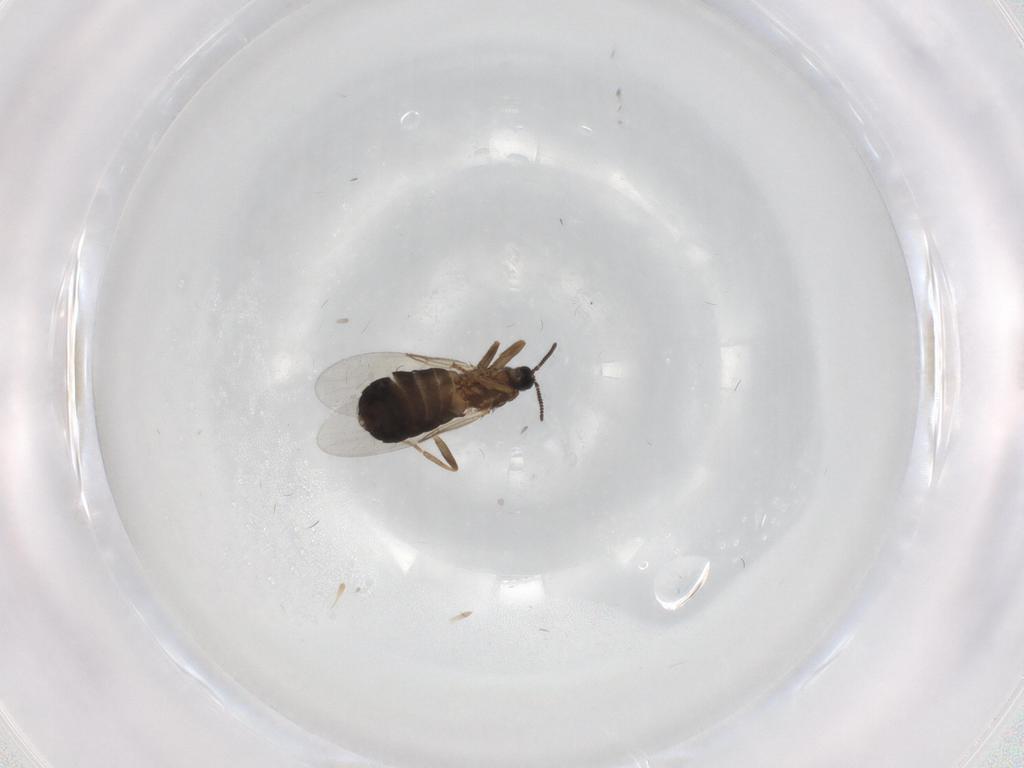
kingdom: Animalia
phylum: Arthropoda
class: Insecta
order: Diptera
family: Scatopsidae
